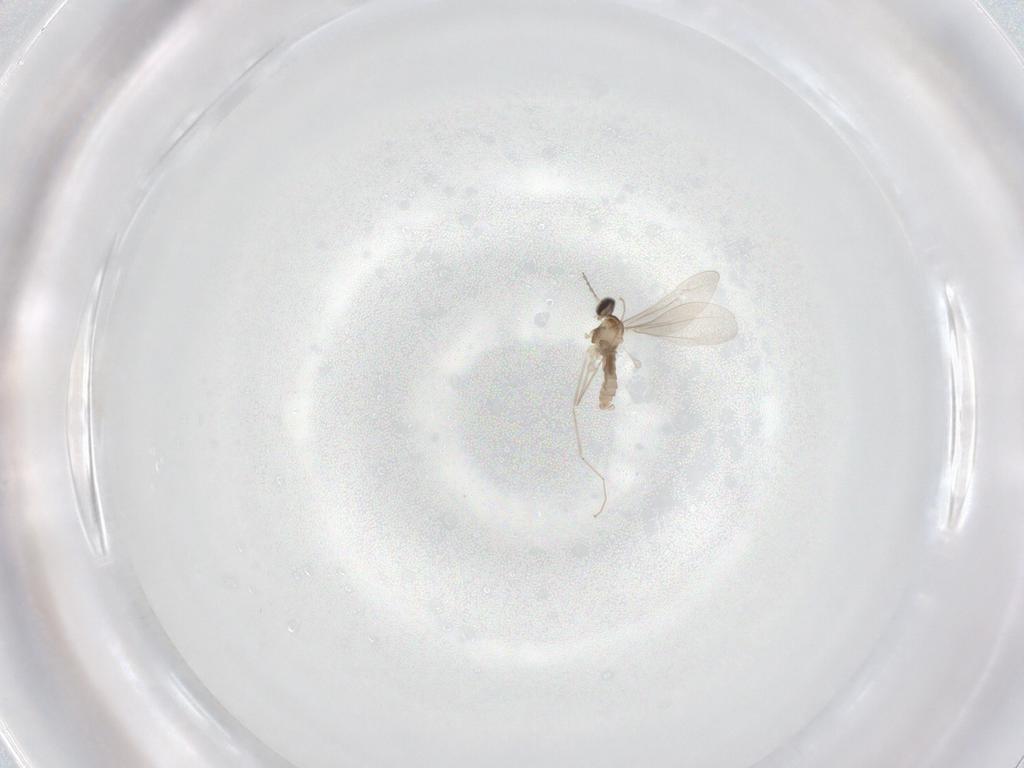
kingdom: Animalia
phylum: Arthropoda
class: Insecta
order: Diptera
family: Cecidomyiidae
